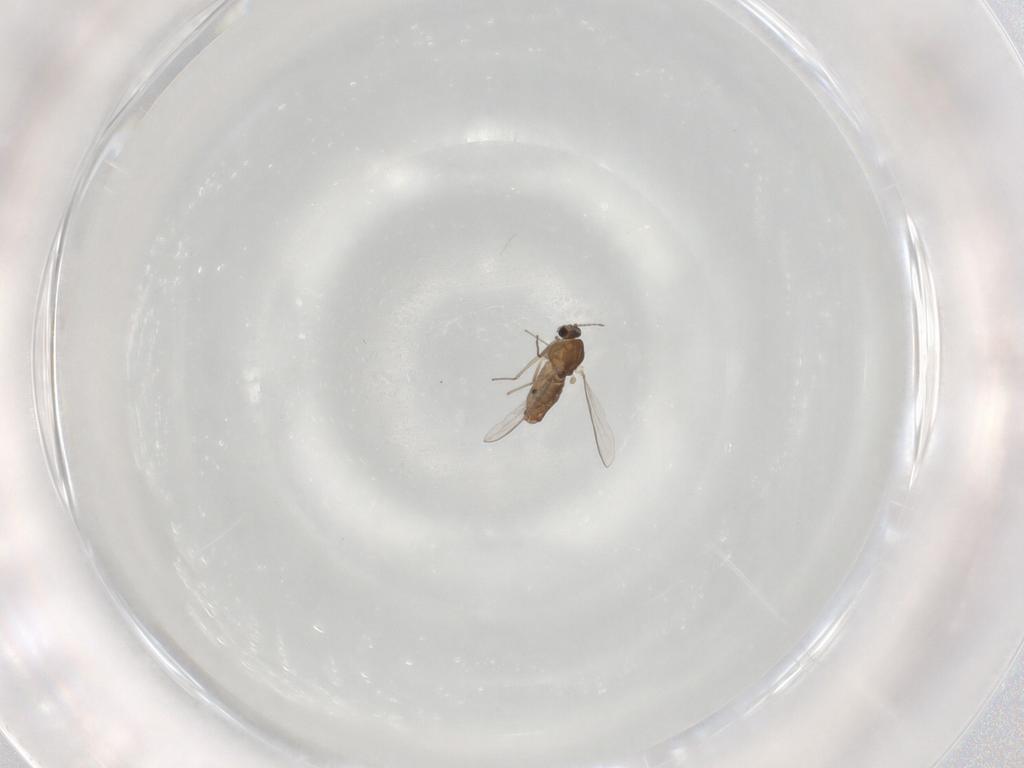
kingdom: Animalia
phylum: Arthropoda
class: Insecta
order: Diptera
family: Chironomidae
